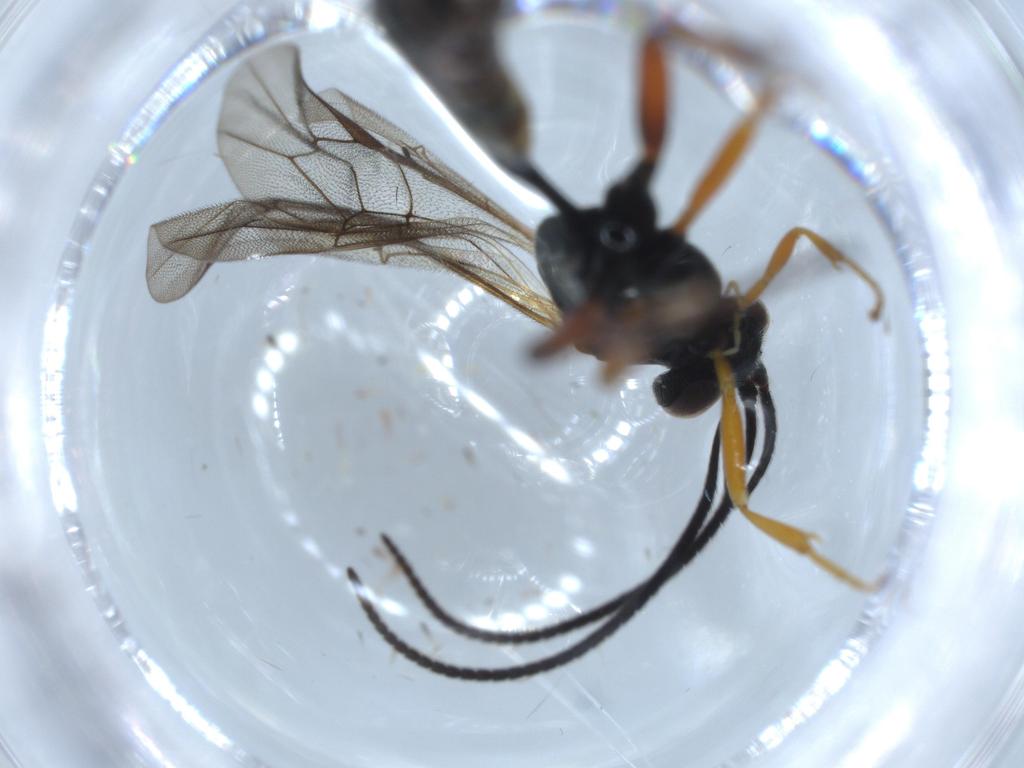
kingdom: Animalia
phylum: Arthropoda
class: Insecta
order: Hymenoptera
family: Ichneumonidae
